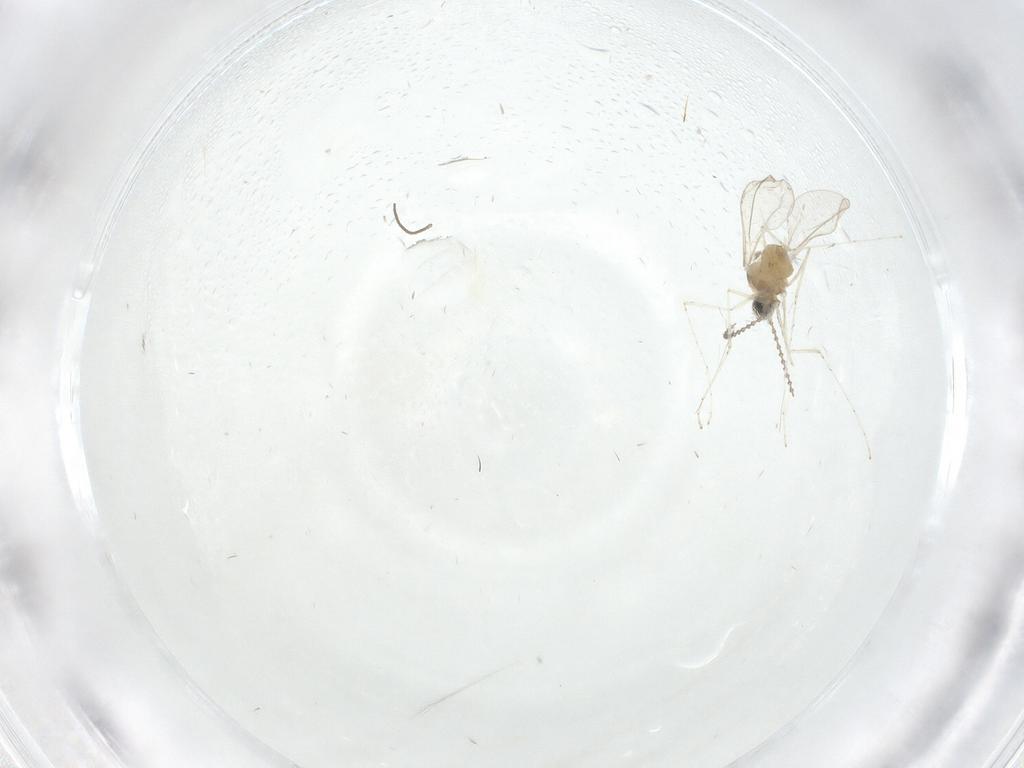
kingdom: Animalia
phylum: Arthropoda
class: Insecta
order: Diptera
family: Cecidomyiidae
